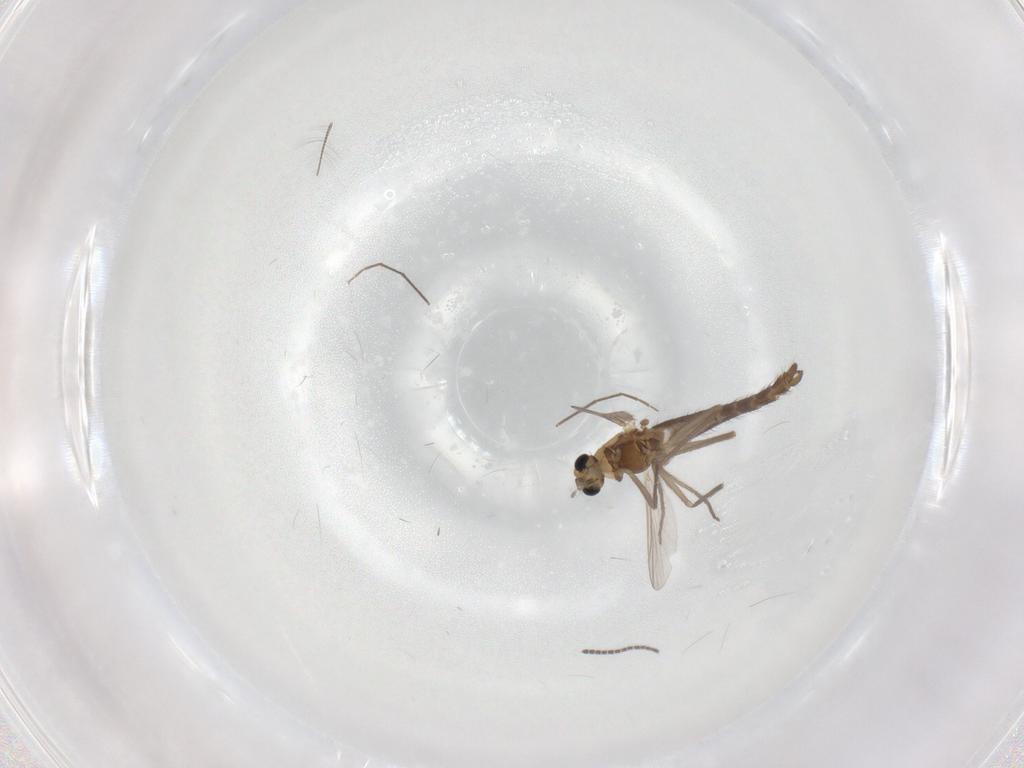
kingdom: Animalia
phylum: Arthropoda
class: Insecta
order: Diptera
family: Chironomidae
